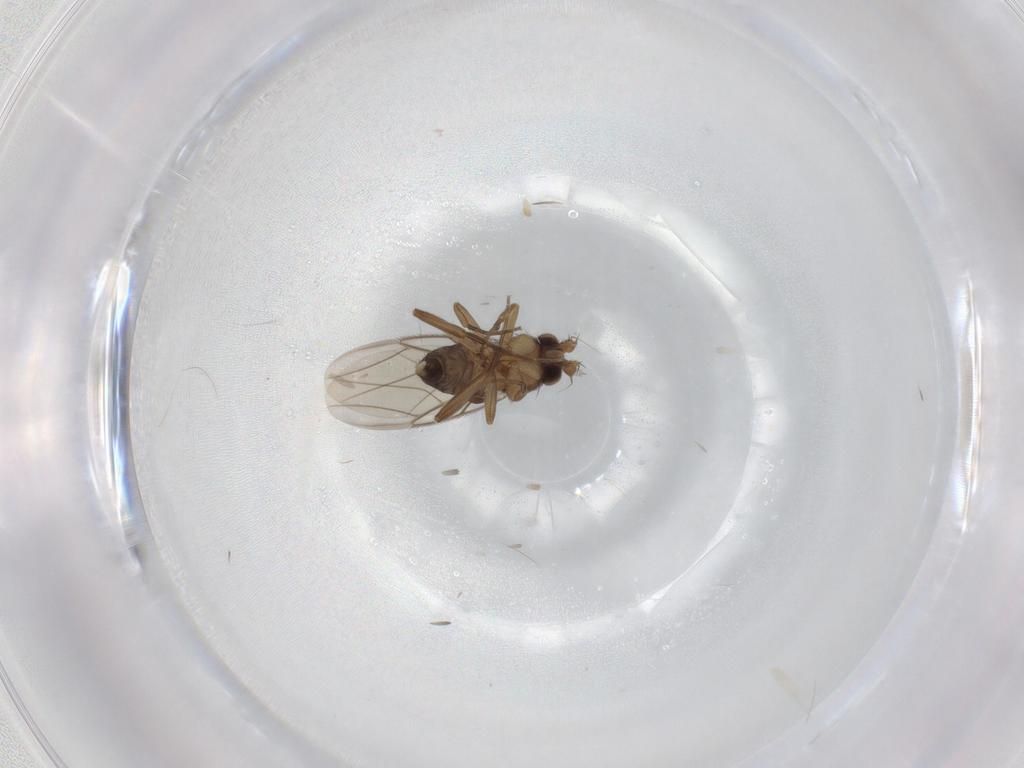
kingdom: Animalia
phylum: Arthropoda
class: Insecta
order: Diptera
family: Phoridae
